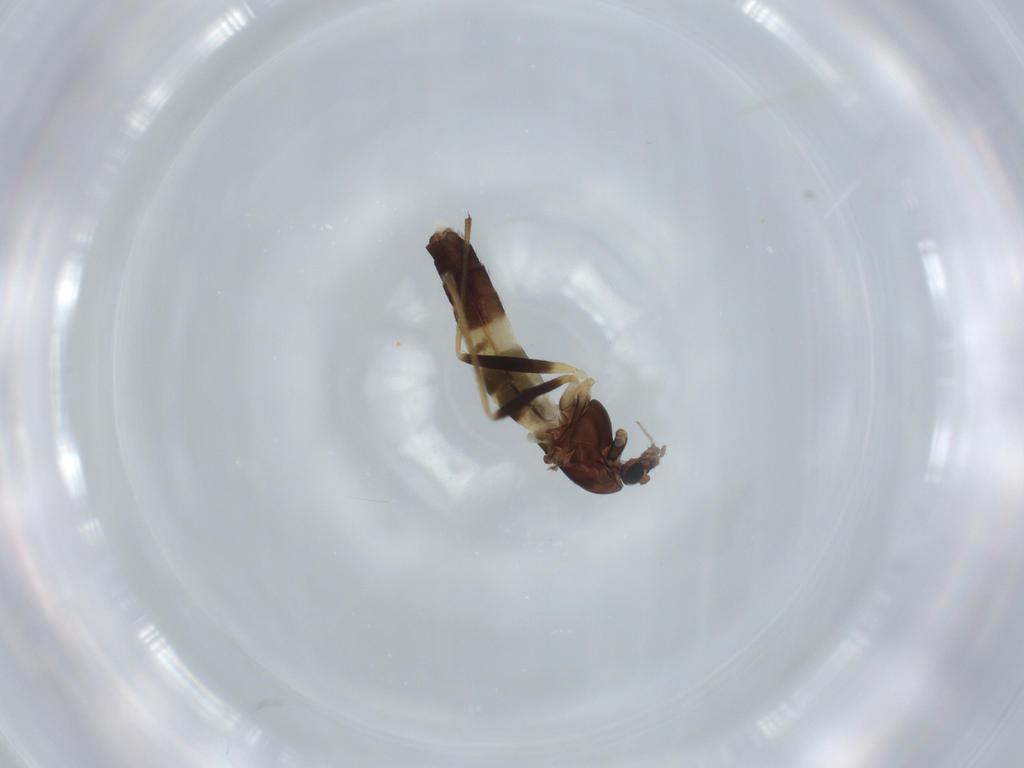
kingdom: Animalia
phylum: Arthropoda
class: Insecta
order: Diptera
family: Chironomidae
